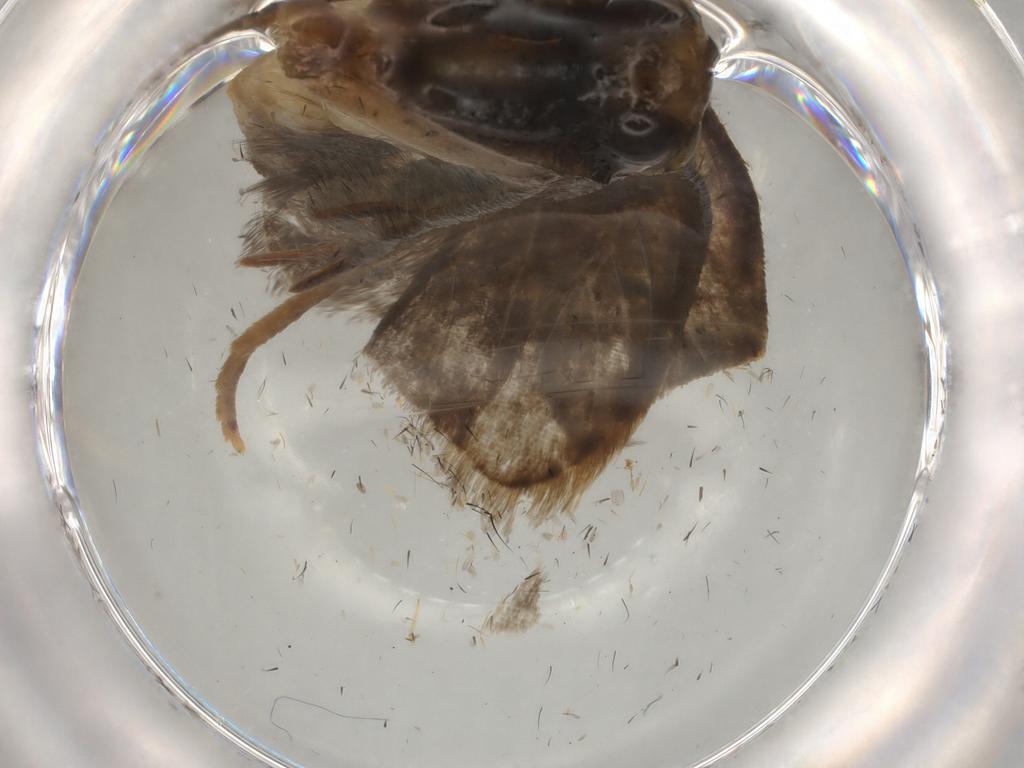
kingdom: Animalia
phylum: Arthropoda
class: Insecta
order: Lepidoptera
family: Gelechiidae
